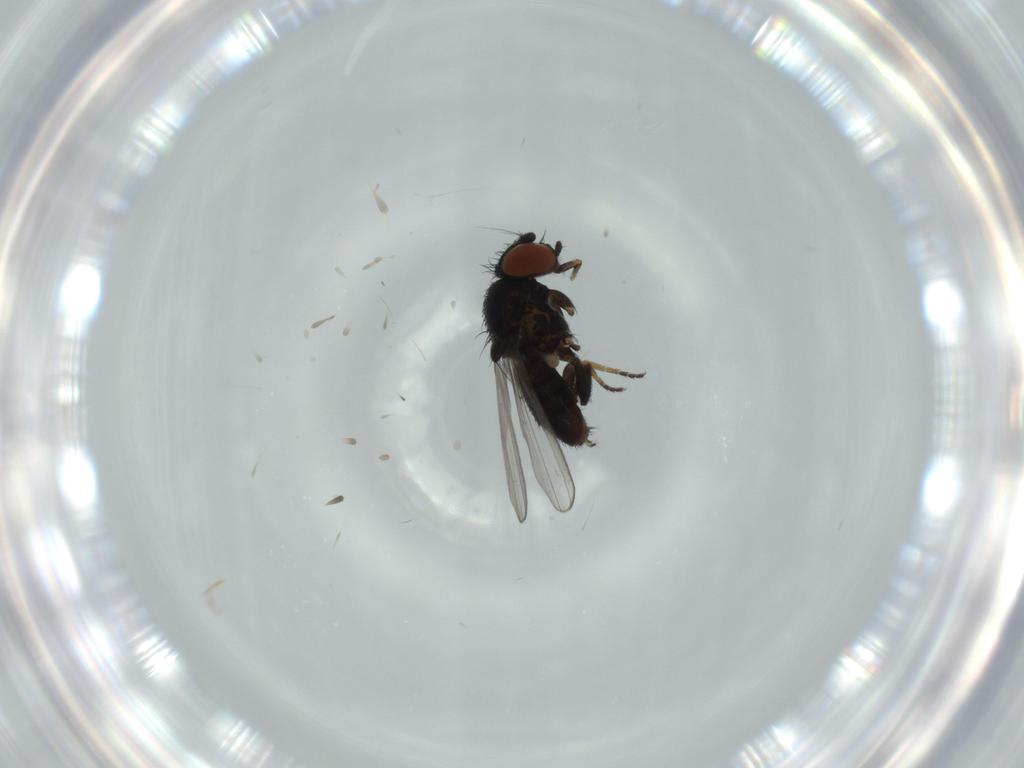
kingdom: Animalia
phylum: Arthropoda
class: Insecta
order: Diptera
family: Milichiidae
